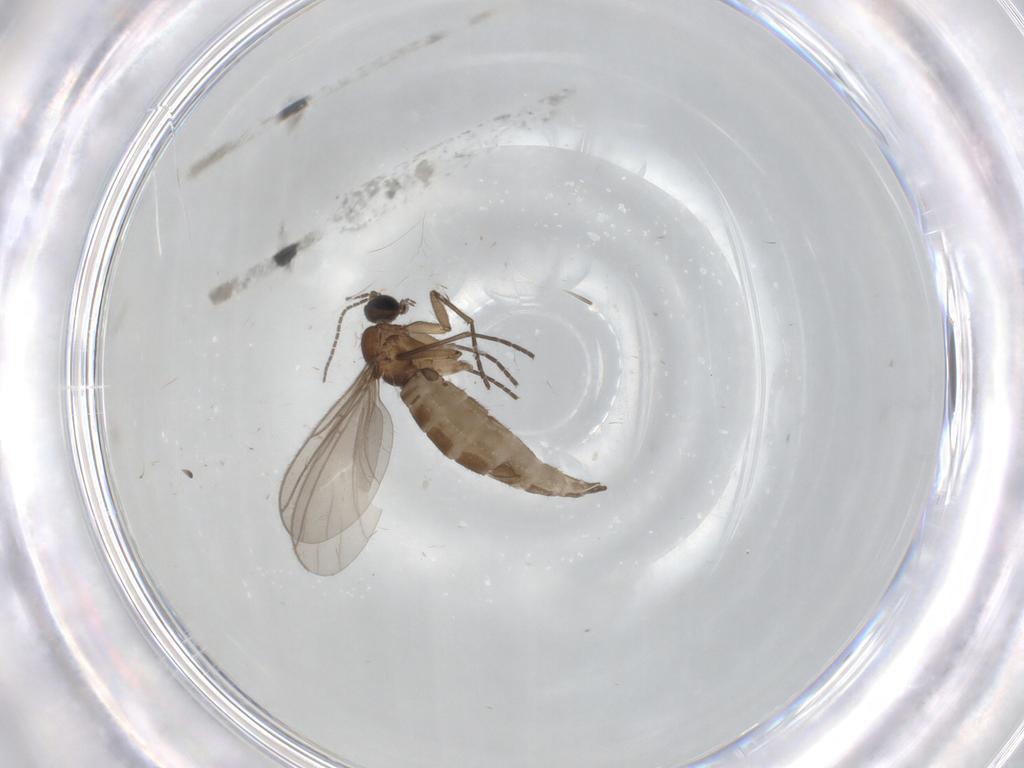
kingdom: Animalia
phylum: Arthropoda
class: Insecta
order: Diptera
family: Sciaridae
